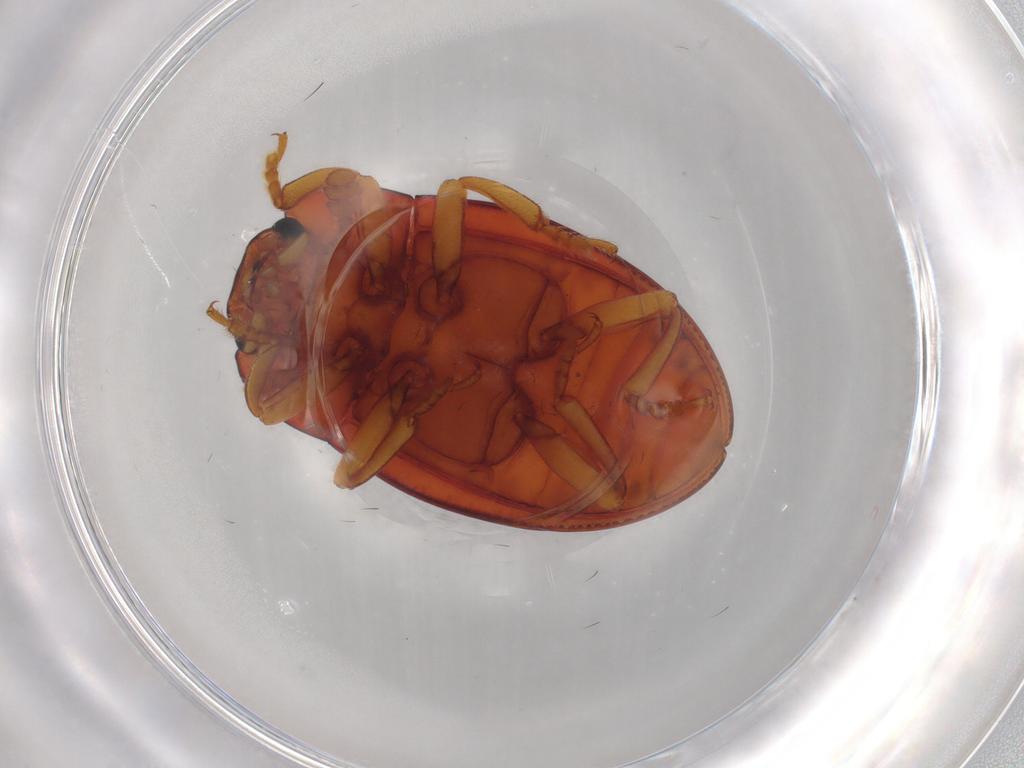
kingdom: Animalia
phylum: Arthropoda
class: Insecta
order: Coleoptera
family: Erotylidae
